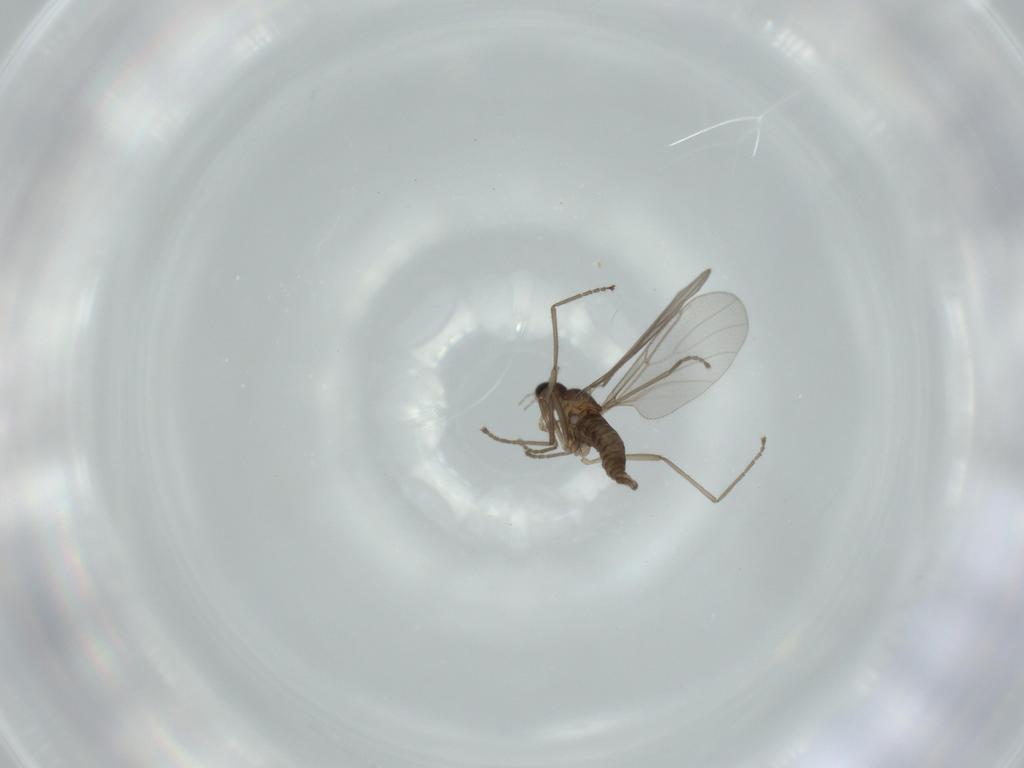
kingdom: Animalia
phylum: Arthropoda
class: Insecta
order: Diptera
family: Cecidomyiidae
